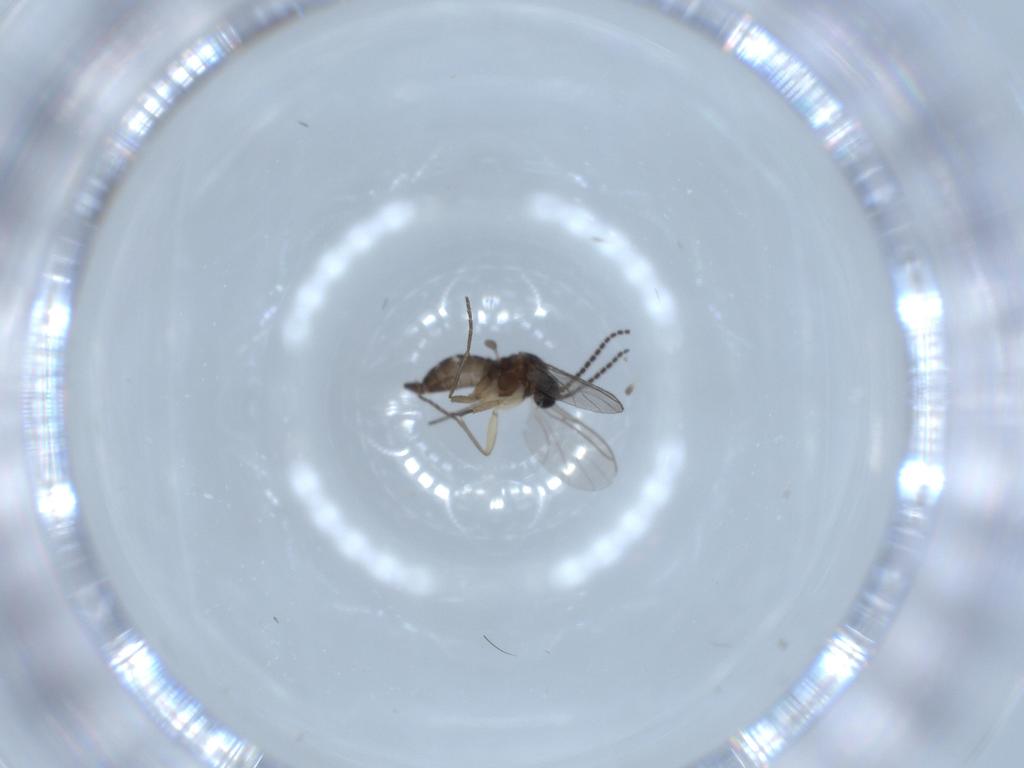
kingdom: Animalia
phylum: Arthropoda
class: Insecta
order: Diptera
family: Sciaridae
